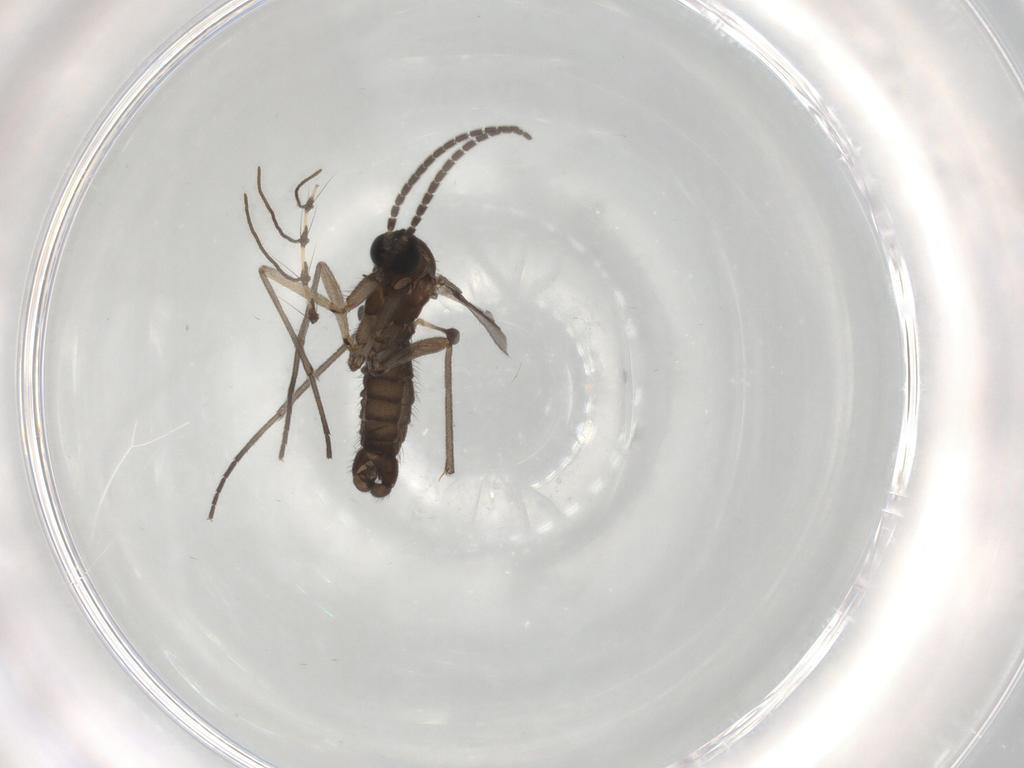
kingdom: Animalia
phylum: Arthropoda
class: Insecta
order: Diptera
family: Sciaridae
